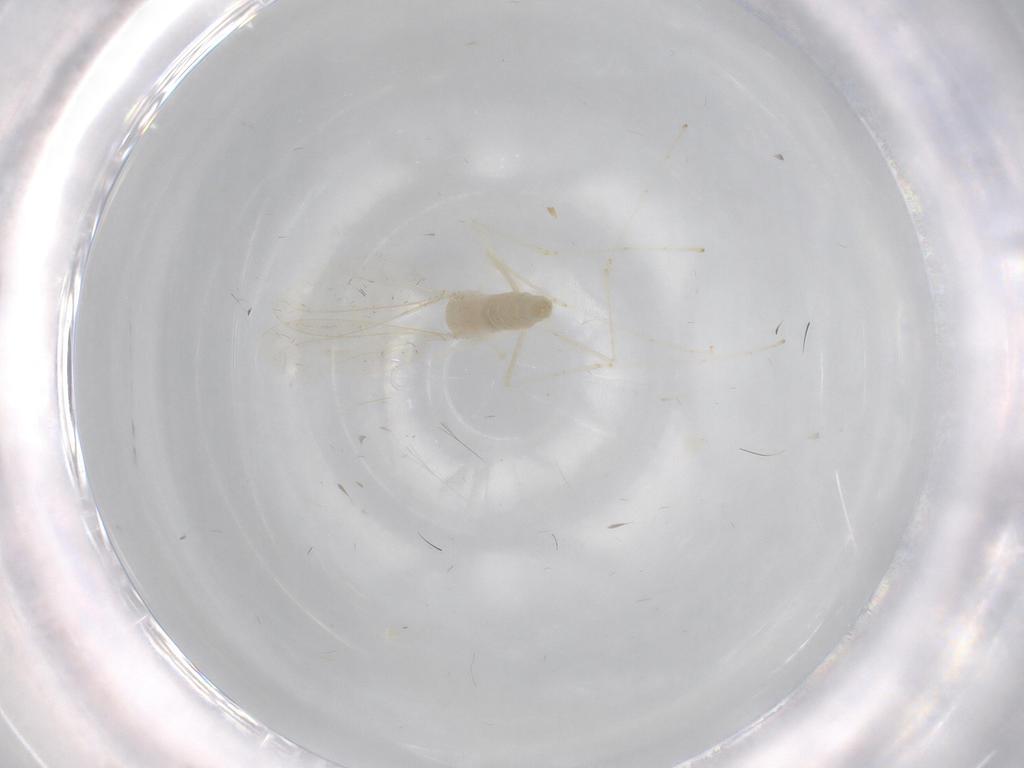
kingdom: Animalia
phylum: Arthropoda
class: Insecta
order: Diptera
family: Cecidomyiidae
